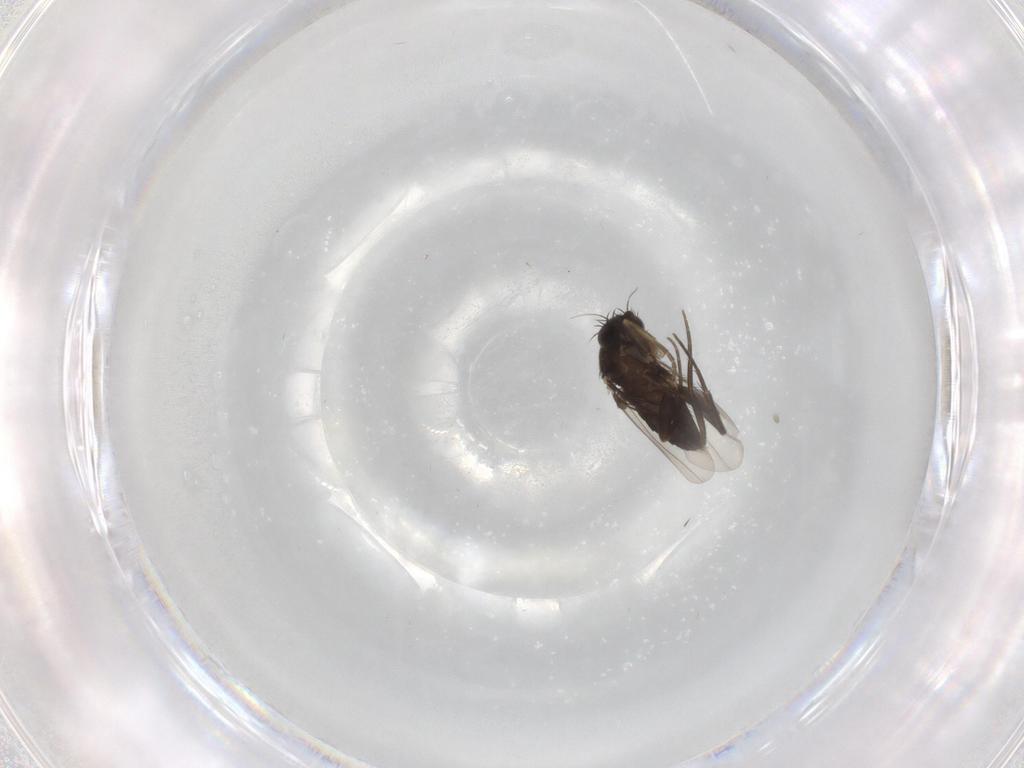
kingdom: Animalia
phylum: Arthropoda
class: Insecta
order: Diptera
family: Phoridae
